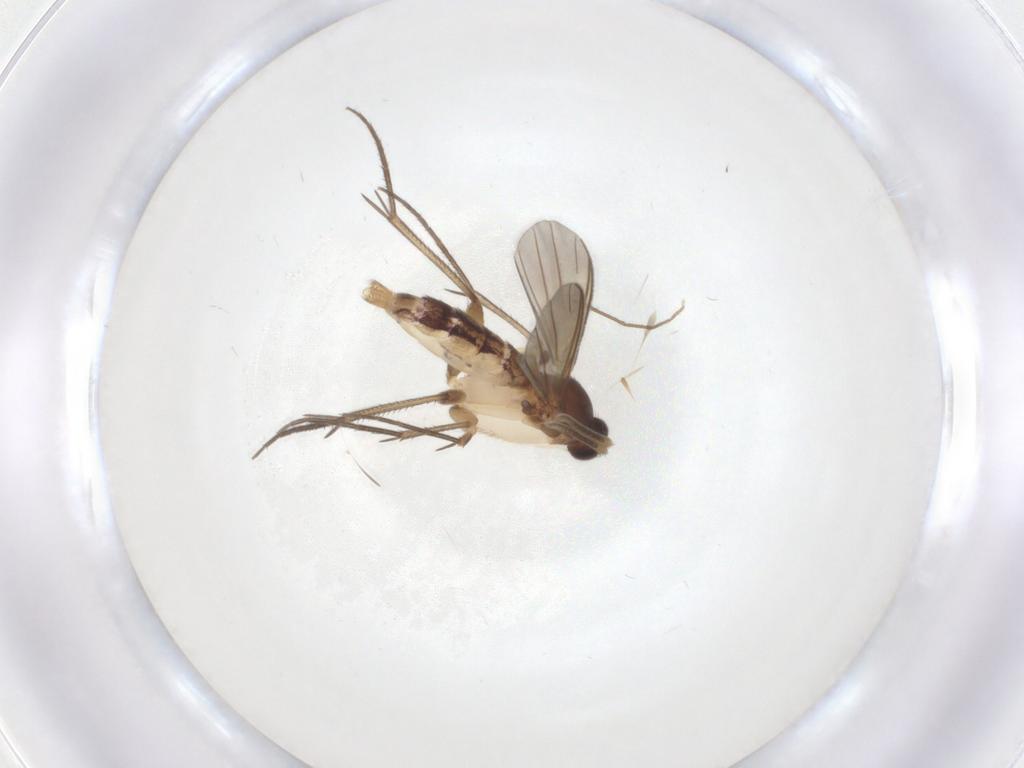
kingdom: Animalia
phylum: Arthropoda
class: Insecta
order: Diptera
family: Mycetophilidae
